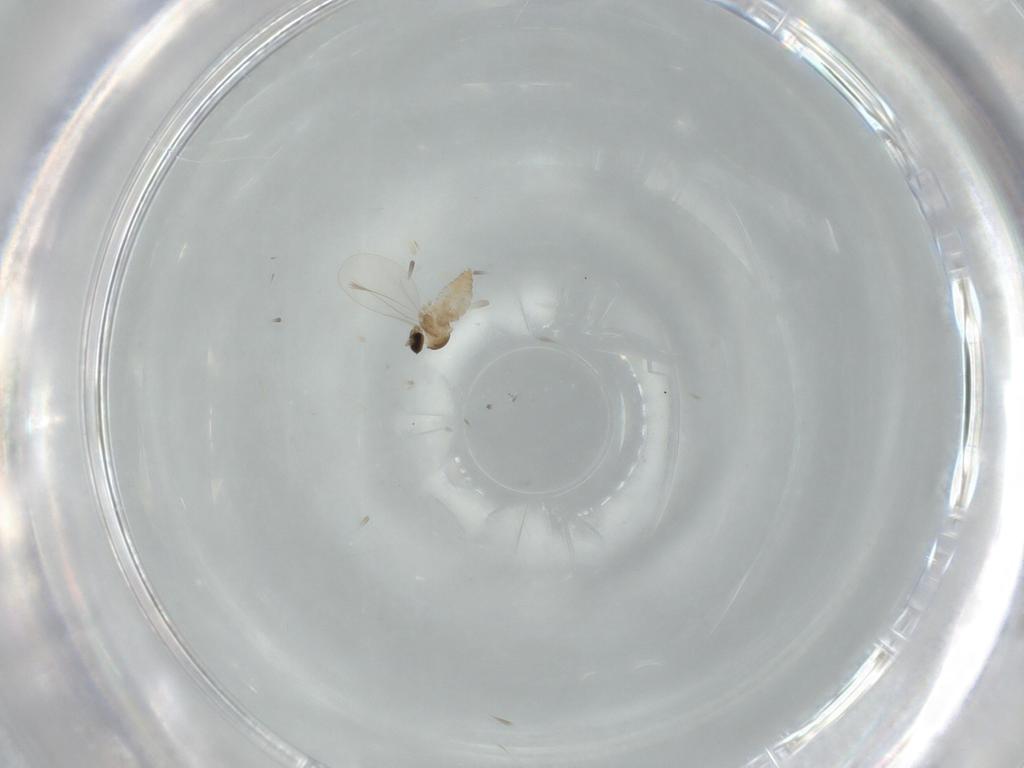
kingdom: Animalia
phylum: Arthropoda
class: Insecta
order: Diptera
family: Cecidomyiidae
